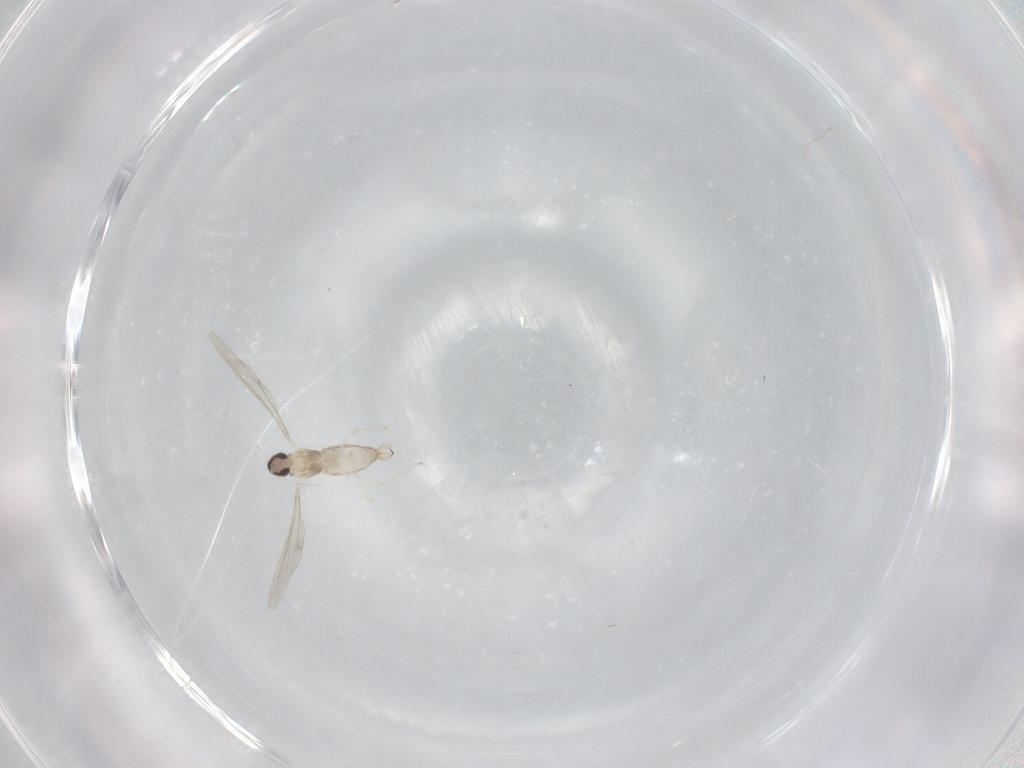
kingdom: Animalia
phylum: Arthropoda
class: Insecta
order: Diptera
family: Cecidomyiidae
